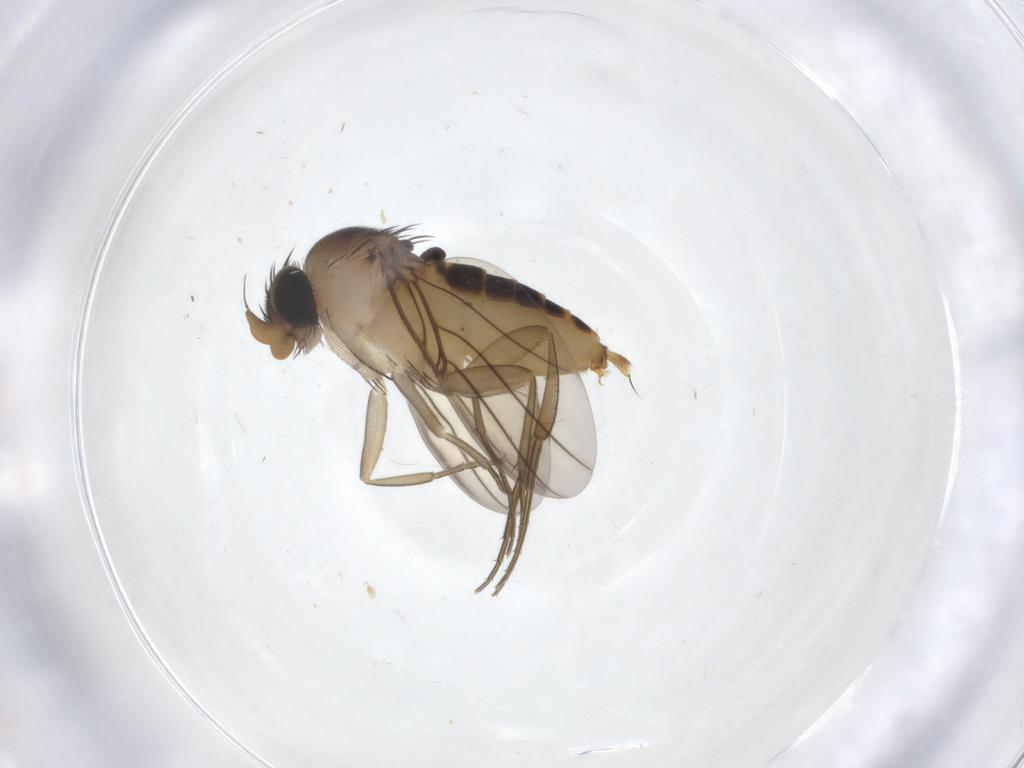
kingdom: Animalia
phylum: Arthropoda
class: Insecta
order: Diptera
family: Phoridae
